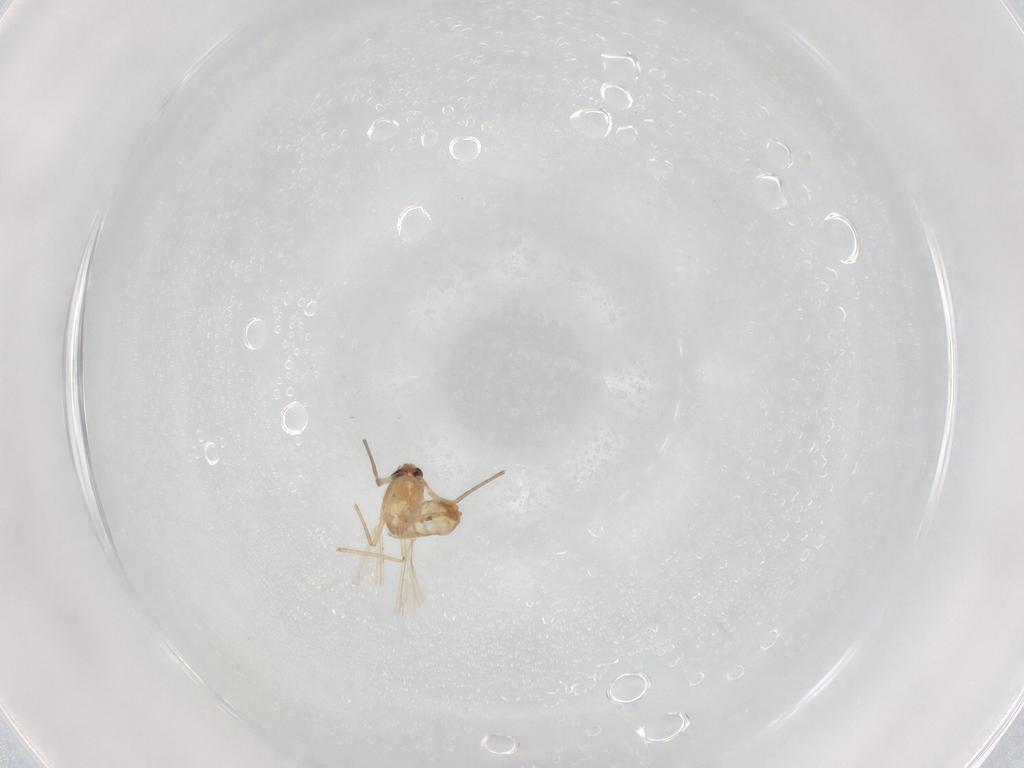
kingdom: Animalia
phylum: Arthropoda
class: Insecta
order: Diptera
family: Cecidomyiidae
